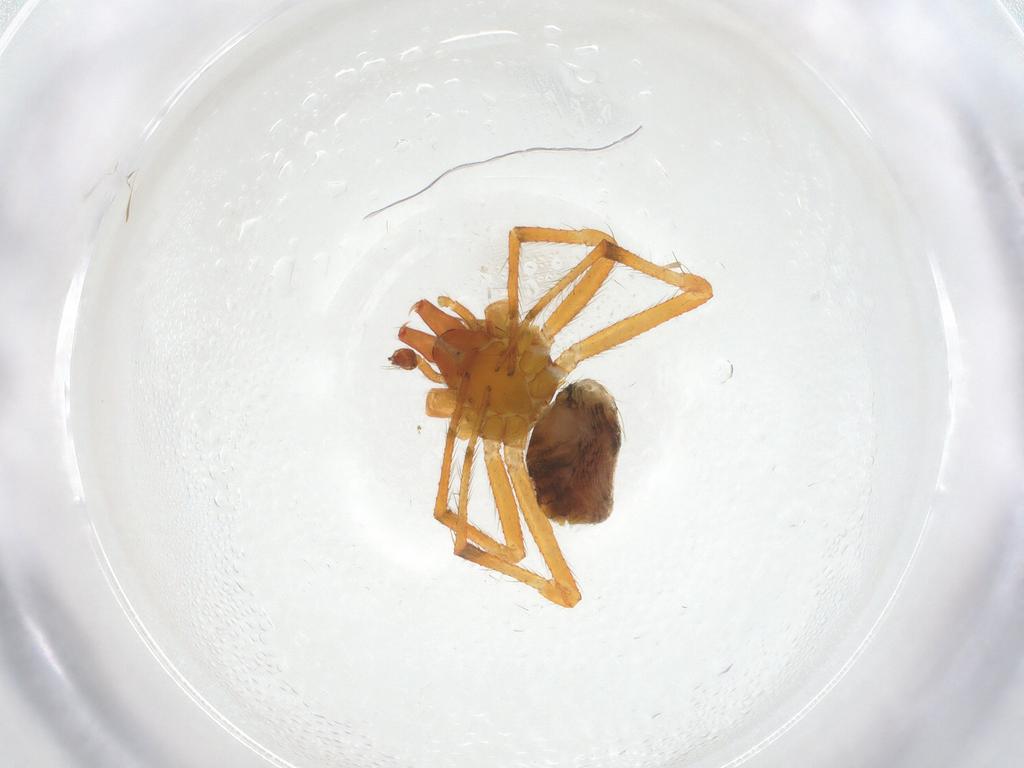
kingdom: Animalia
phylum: Arthropoda
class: Arachnida
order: Araneae
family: Theridiidae
